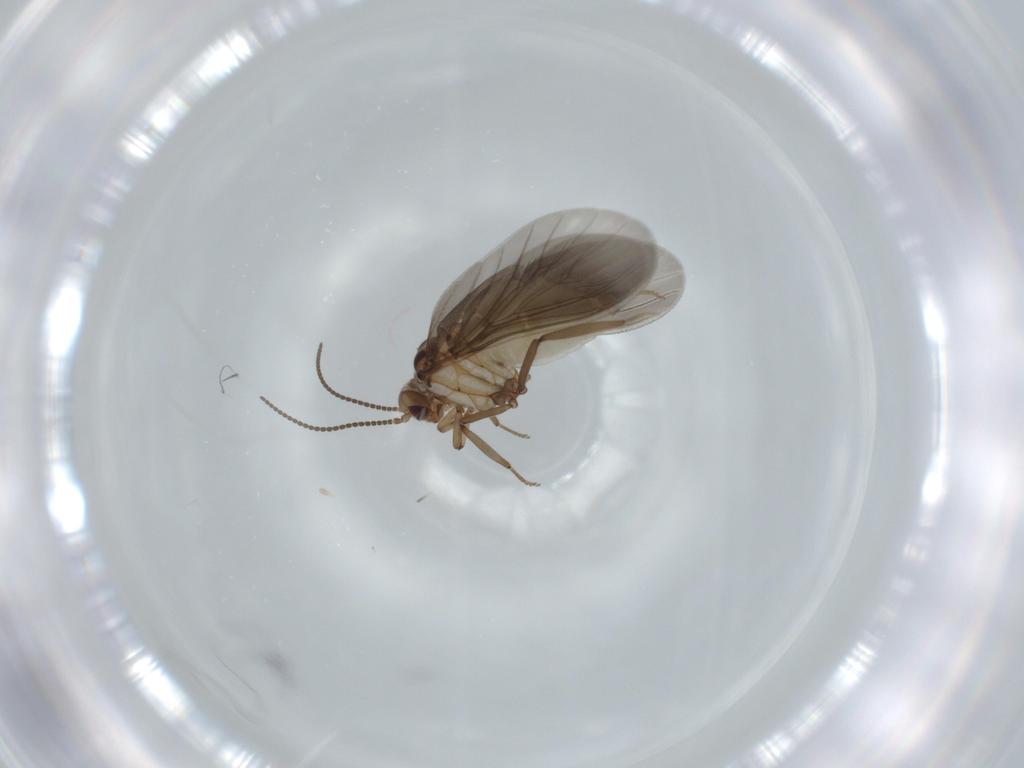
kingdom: Animalia
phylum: Arthropoda
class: Insecta
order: Neuroptera
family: Coniopterygidae
